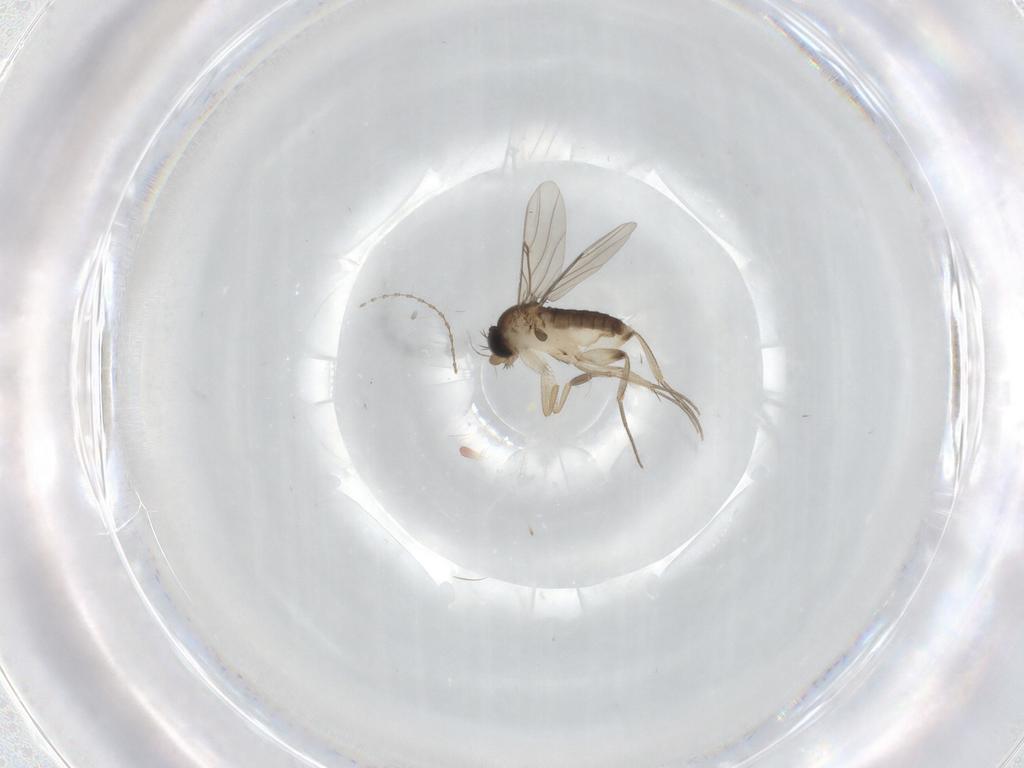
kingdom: Animalia
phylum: Arthropoda
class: Insecta
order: Diptera
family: Phoridae
